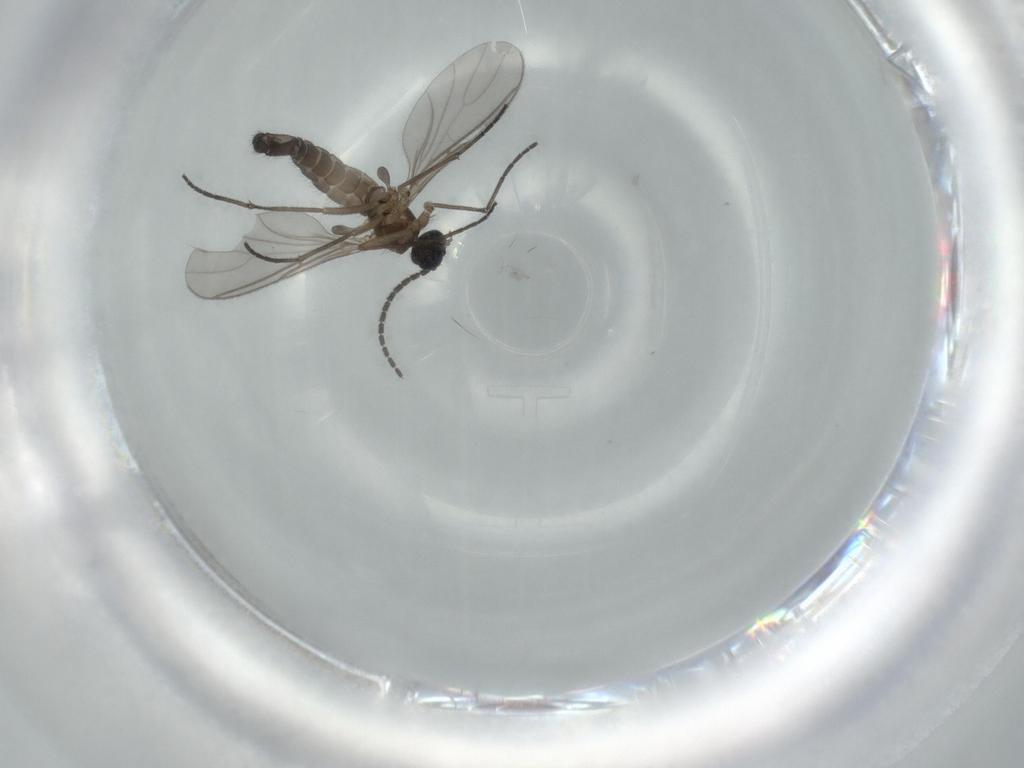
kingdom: Animalia
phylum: Arthropoda
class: Insecta
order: Diptera
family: Sciaridae
